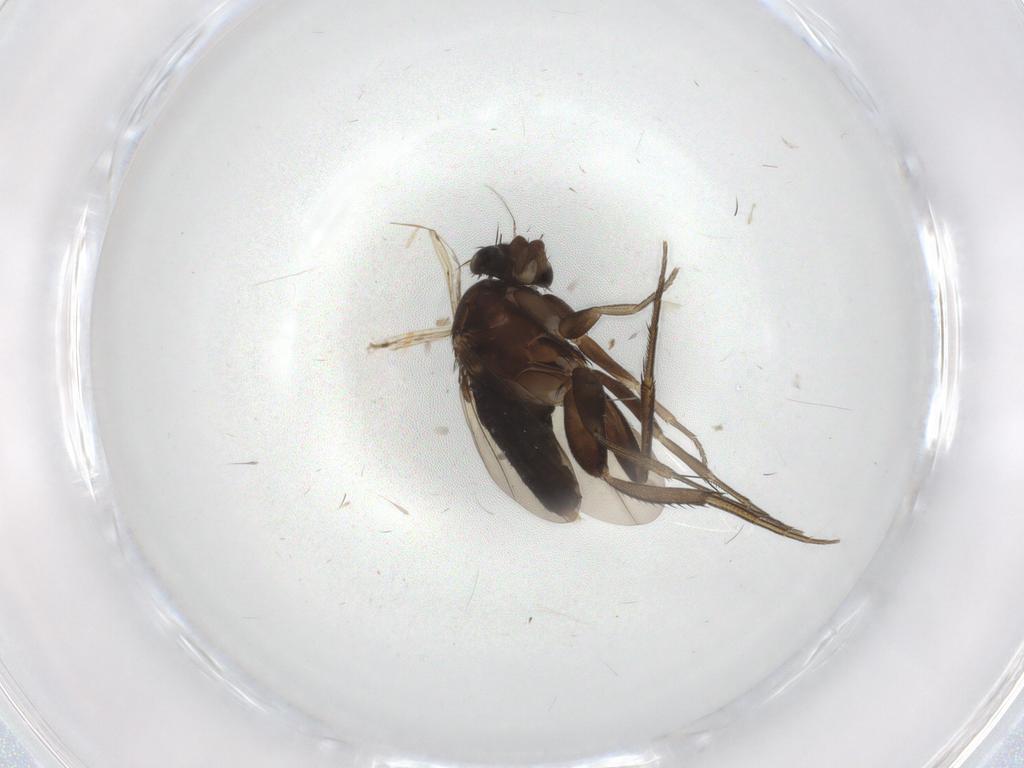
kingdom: Animalia
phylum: Arthropoda
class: Insecta
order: Diptera
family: Phoridae
